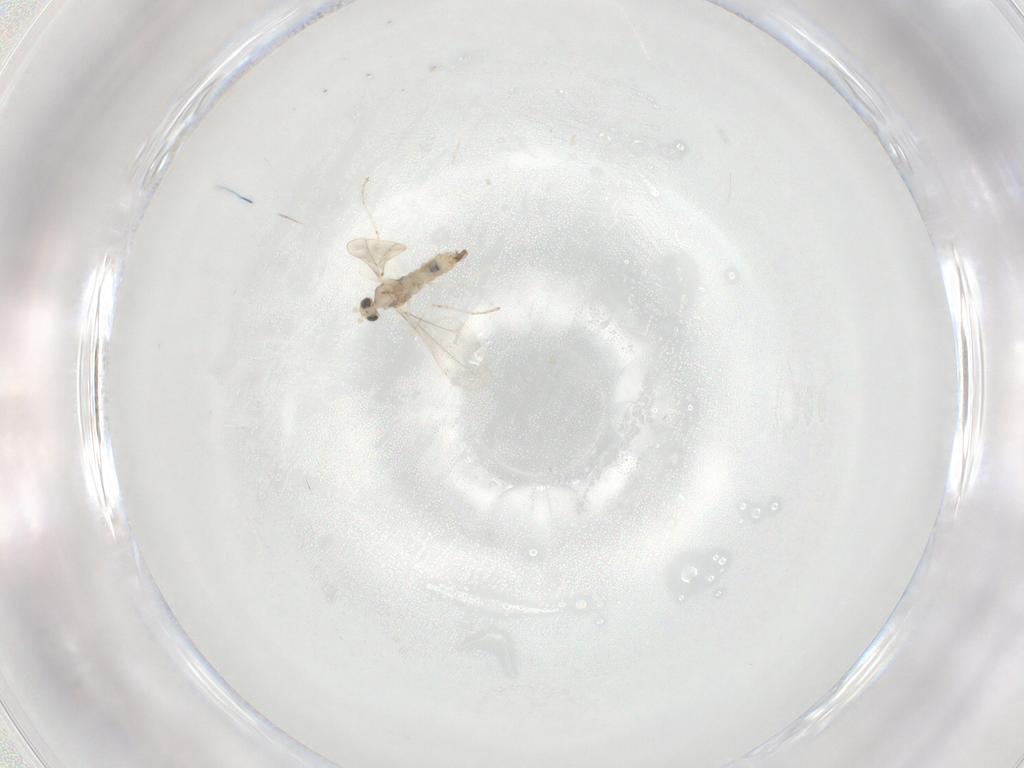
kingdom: Animalia
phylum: Arthropoda
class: Insecta
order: Diptera
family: Cecidomyiidae
